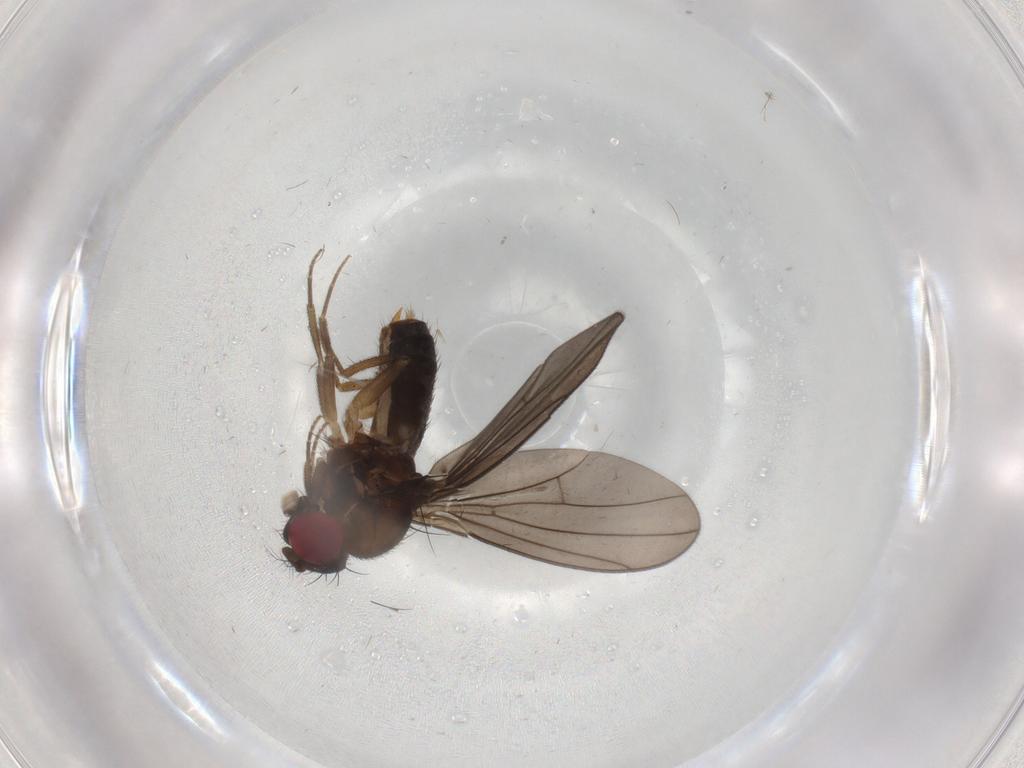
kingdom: Animalia
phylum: Arthropoda
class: Insecta
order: Diptera
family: Drosophilidae
